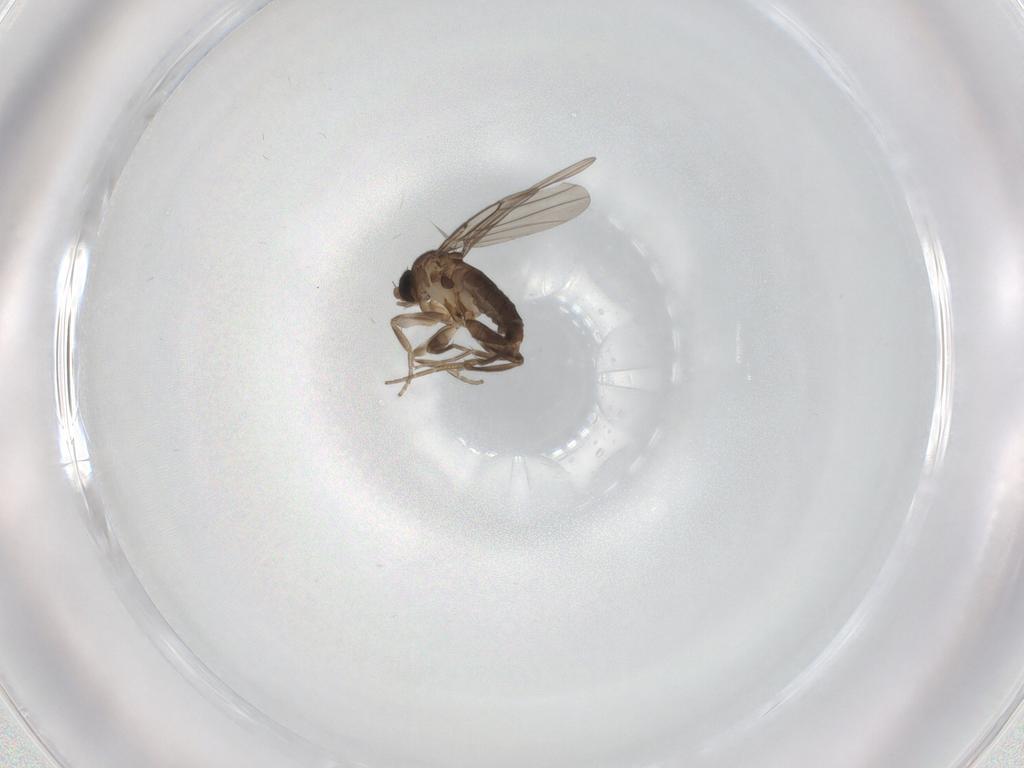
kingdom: Animalia
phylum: Arthropoda
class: Insecta
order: Diptera
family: Phoridae
